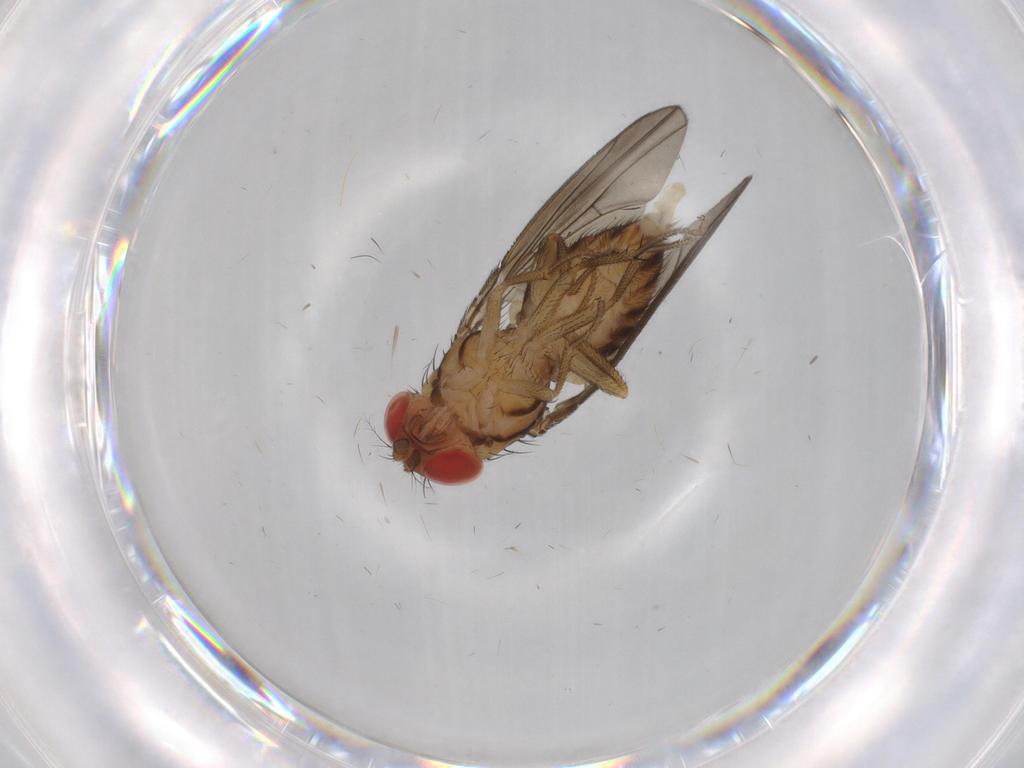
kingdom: Animalia
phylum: Arthropoda
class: Insecta
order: Diptera
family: Drosophilidae
